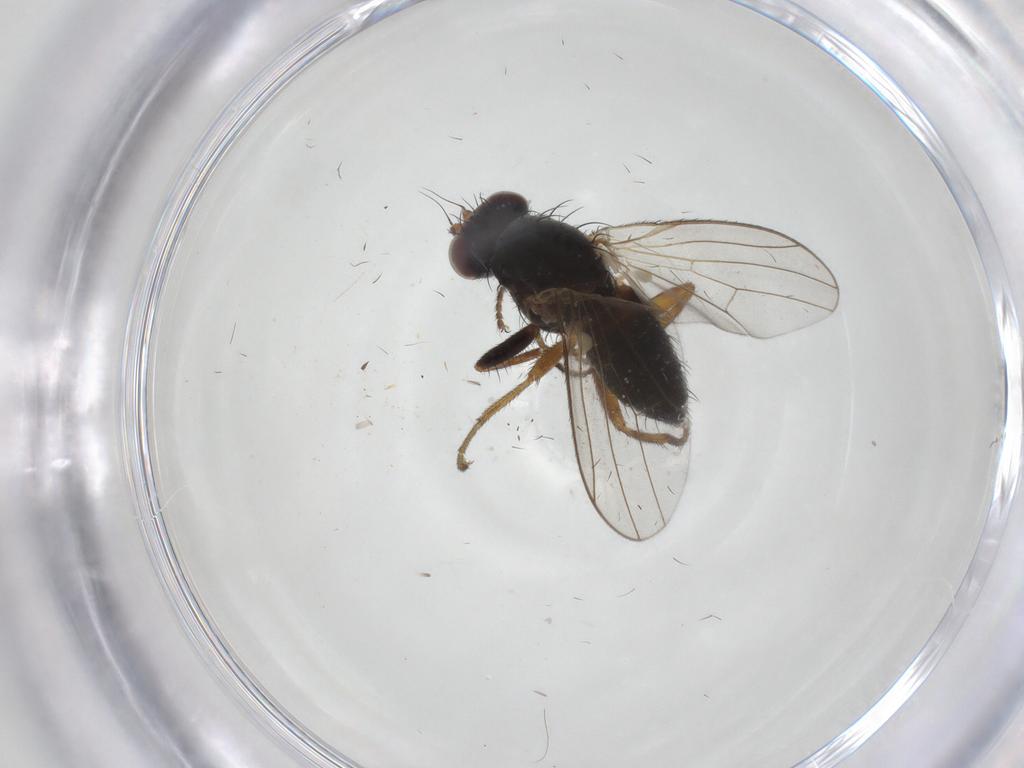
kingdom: Animalia
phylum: Arthropoda
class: Insecta
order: Diptera
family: Heleomyzidae
